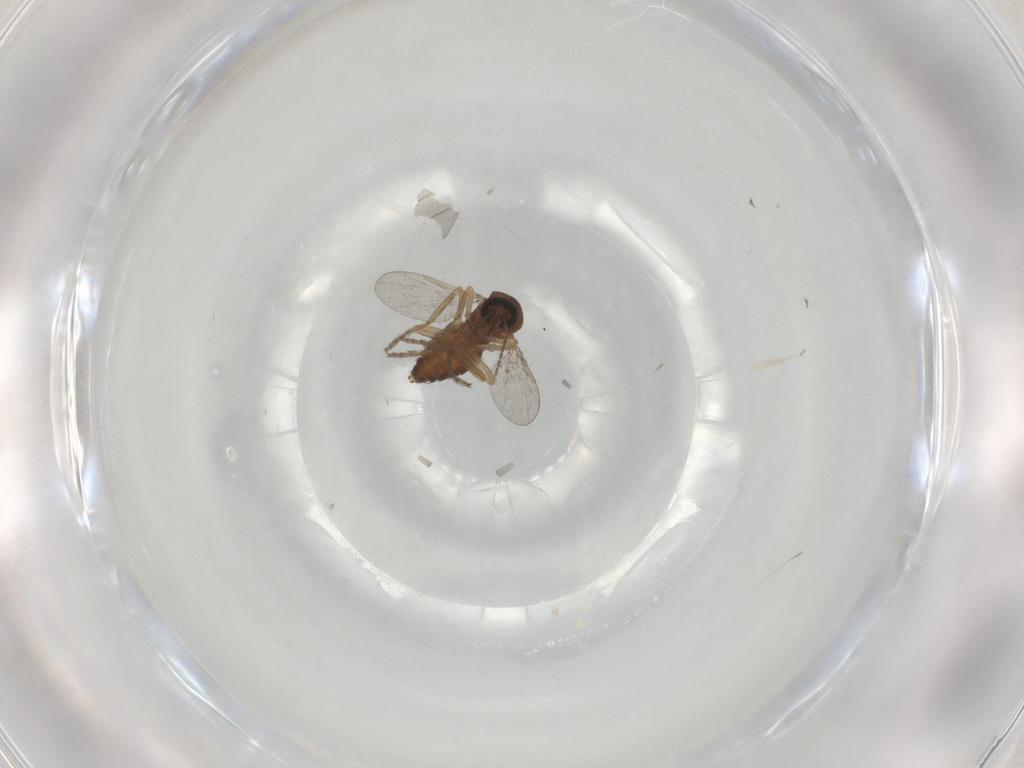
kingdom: Animalia
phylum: Arthropoda
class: Insecta
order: Diptera
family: Ceratopogonidae
